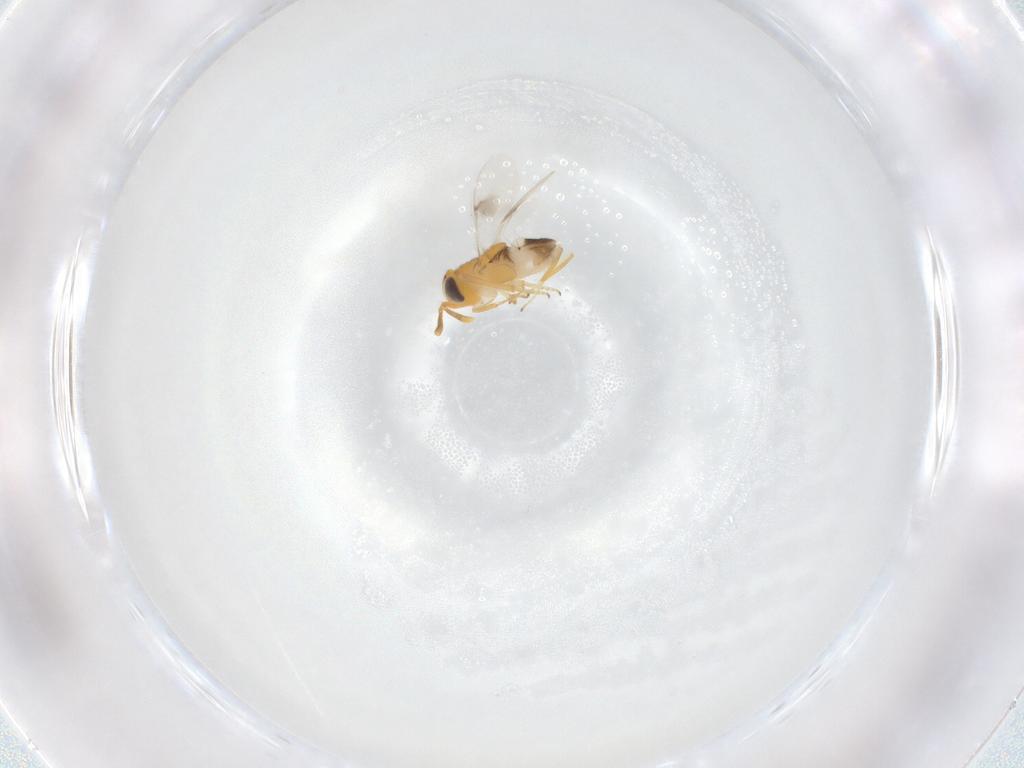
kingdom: Animalia
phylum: Arthropoda
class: Insecta
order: Hymenoptera
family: Encyrtidae
